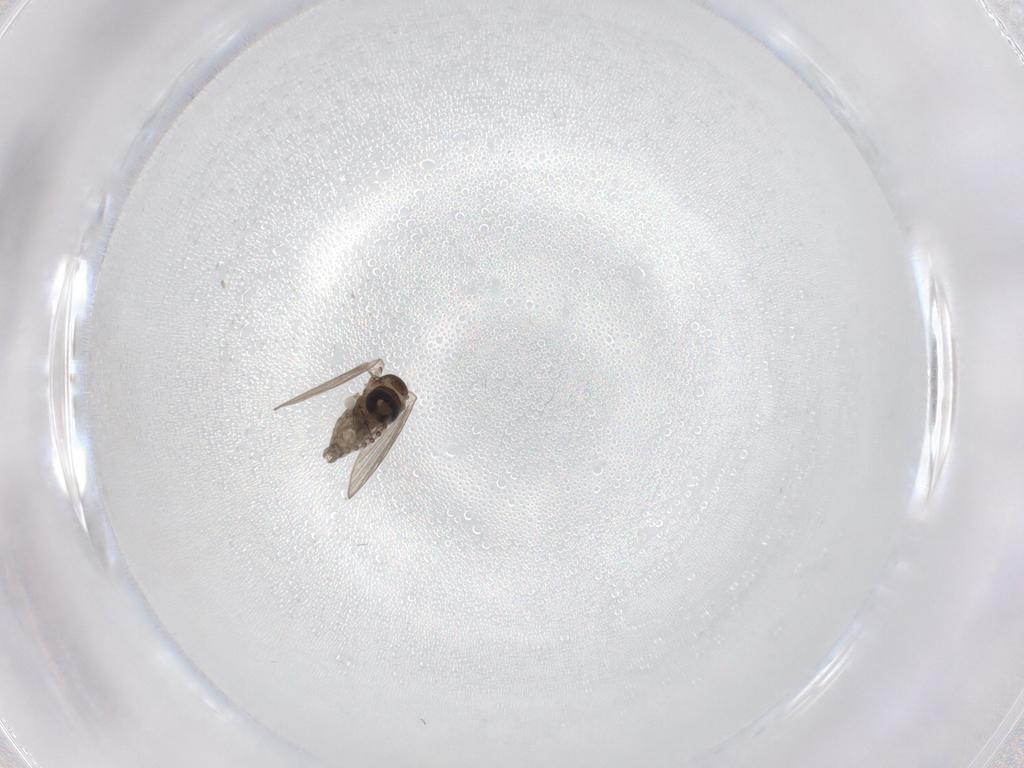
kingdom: Animalia
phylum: Arthropoda
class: Insecta
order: Diptera
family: Psychodidae
